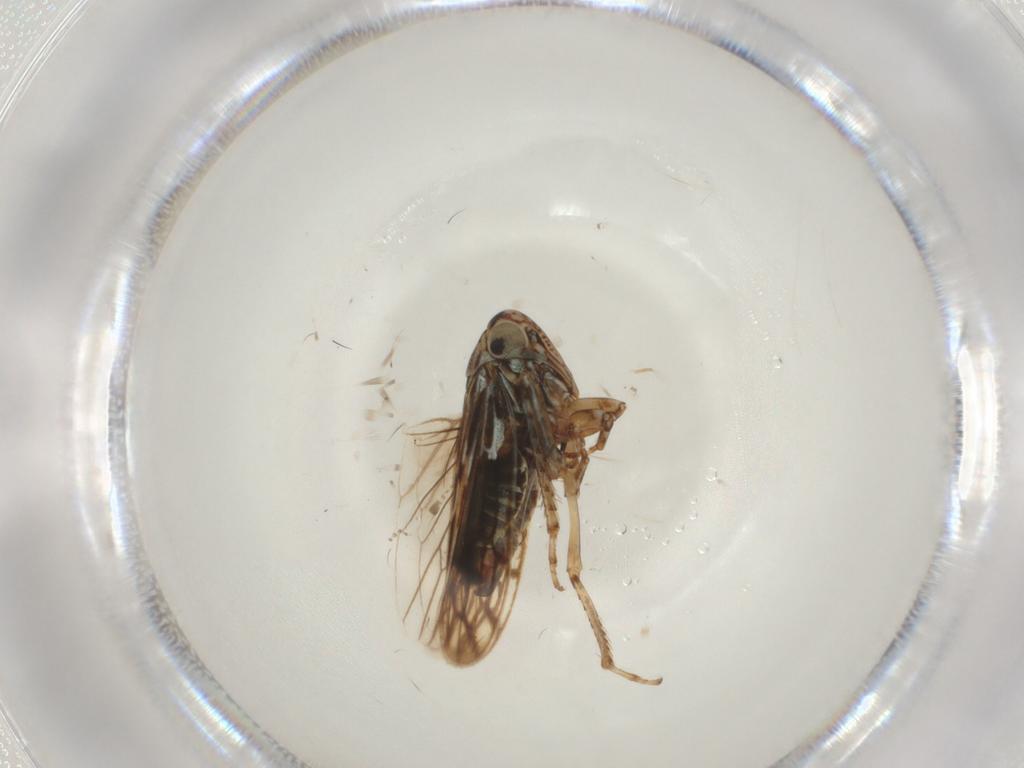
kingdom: Animalia
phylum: Arthropoda
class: Insecta
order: Hemiptera
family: Cicadellidae
